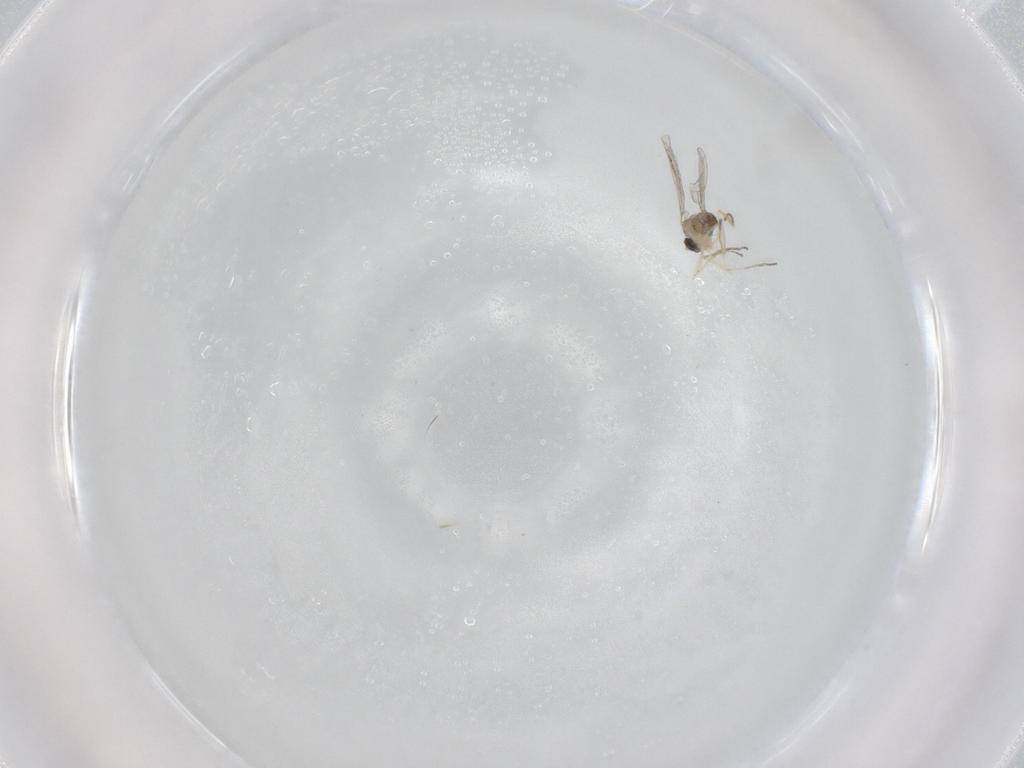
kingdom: Animalia
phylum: Arthropoda
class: Insecta
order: Diptera
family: Cecidomyiidae
